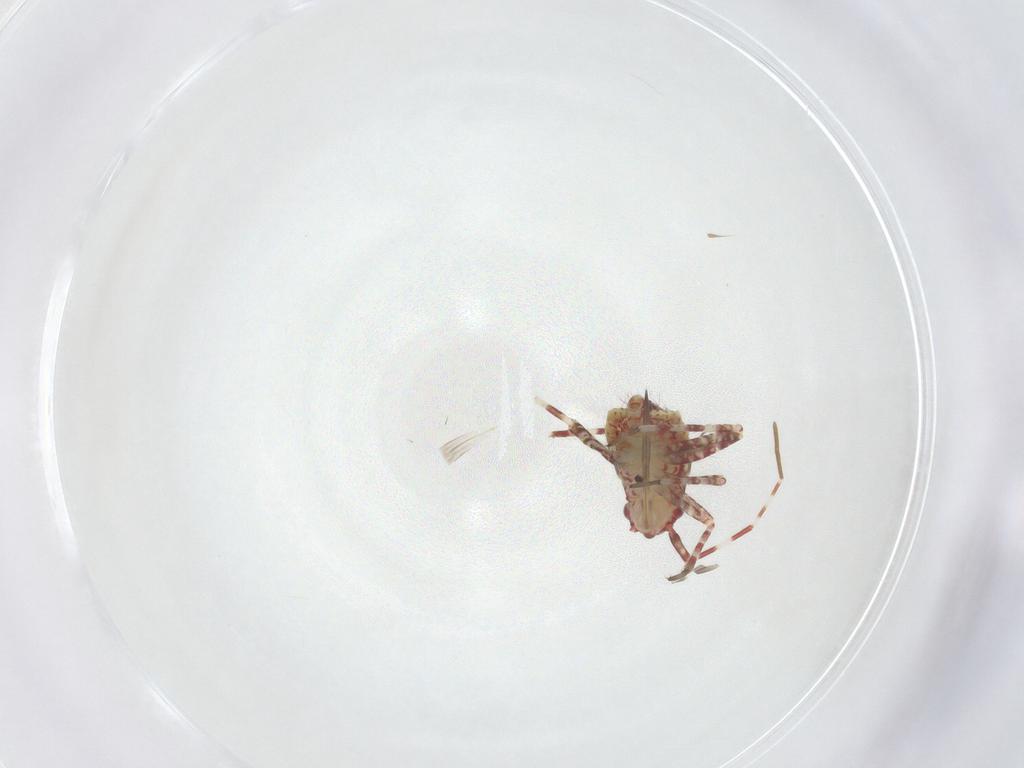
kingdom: Animalia
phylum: Arthropoda
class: Insecta
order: Hemiptera
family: Miridae
